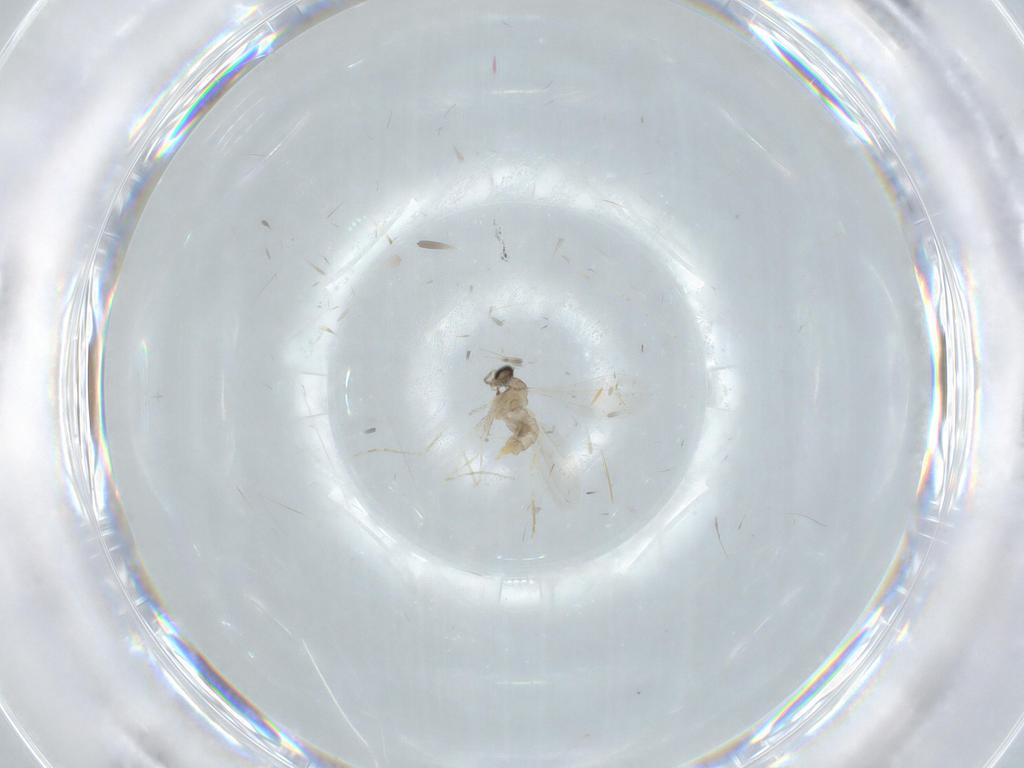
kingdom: Animalia
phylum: Arthropoda
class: Insecta
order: Diptera
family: Cecidomyiidae
